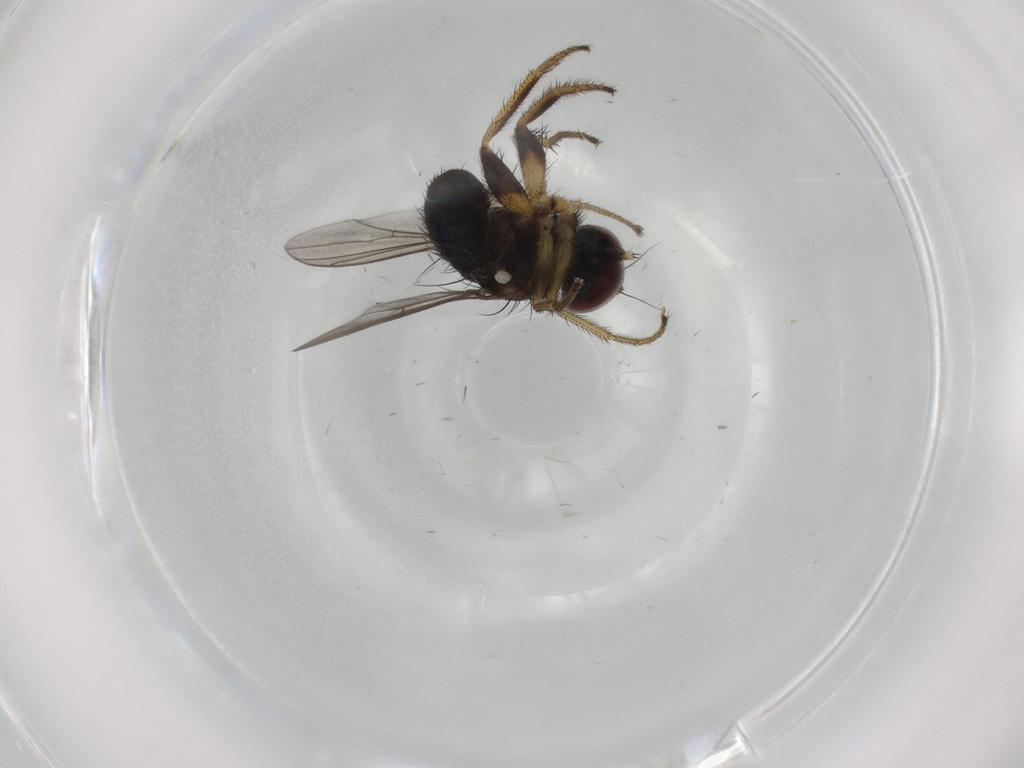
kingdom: Animalia
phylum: Arthropoda
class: Insecta
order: Diptera
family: Dolichopodidae
